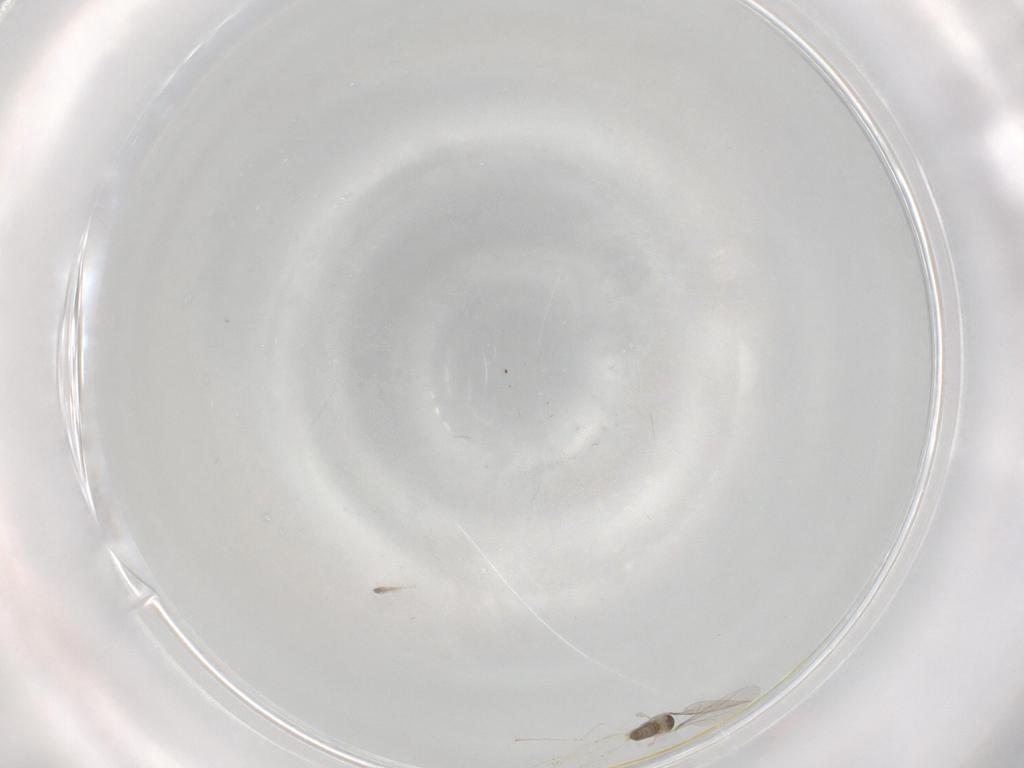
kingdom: Animalia
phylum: Arthropoda
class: Insecta
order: Diptera
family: Cecidomyiidae
